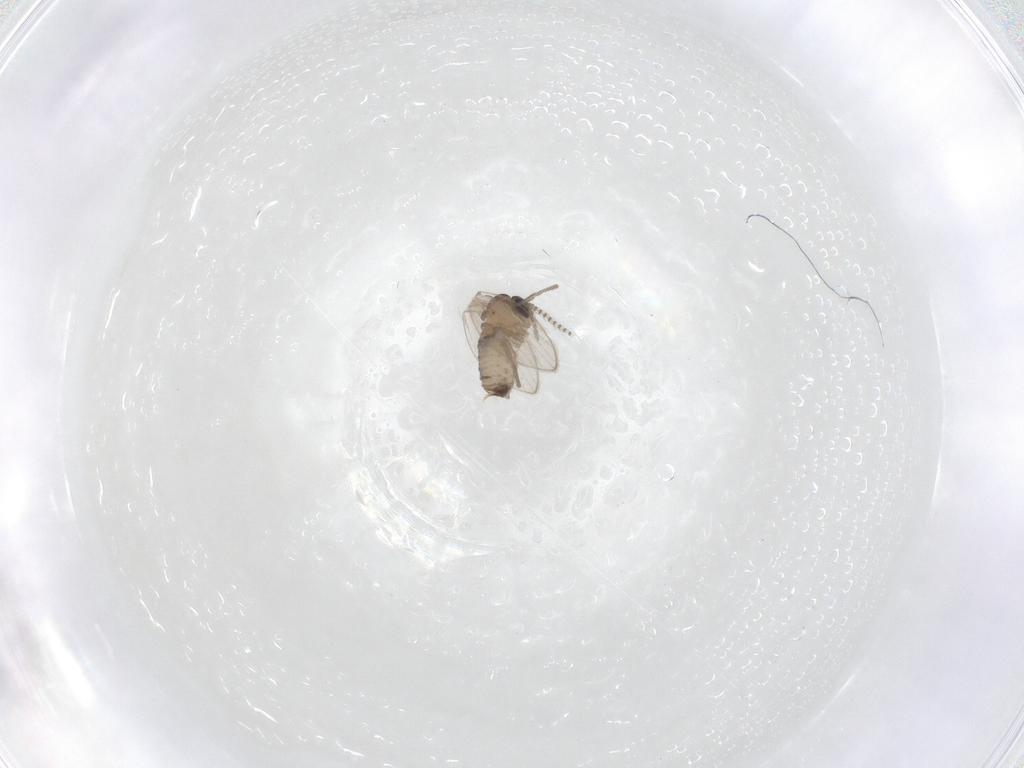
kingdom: Animalia
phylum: Arthropoda
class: Insecta
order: Diptera
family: Psychodidae
